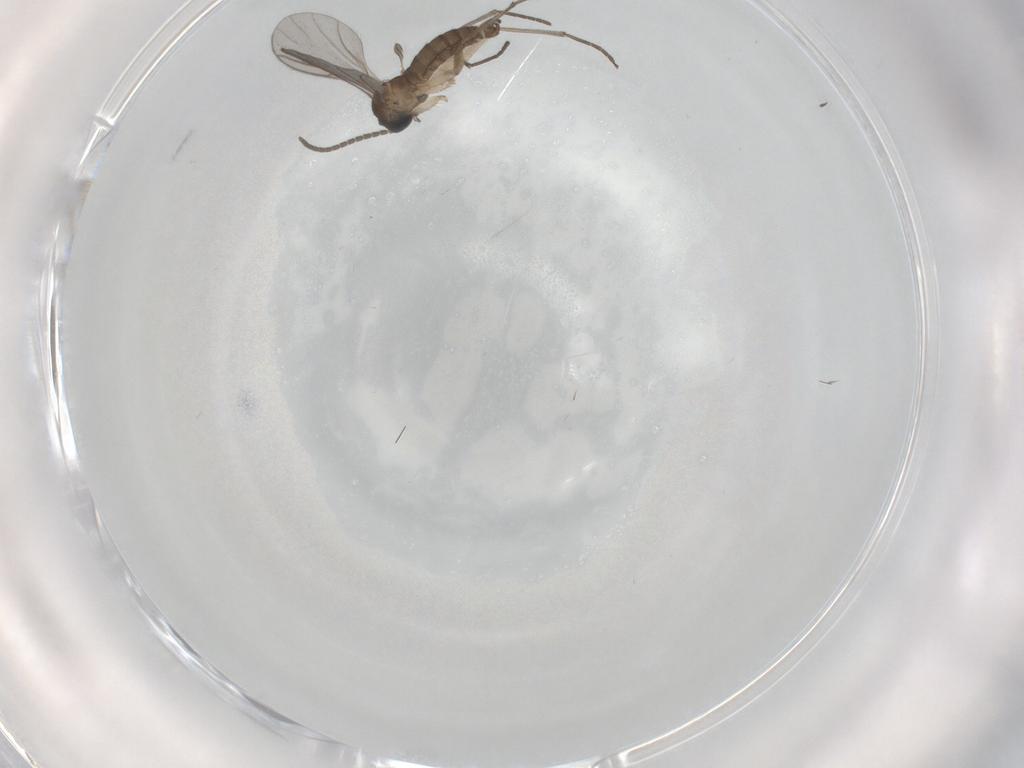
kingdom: Animalia
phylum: Arthropoda
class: Insecta
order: Diptera
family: Sciaridae
